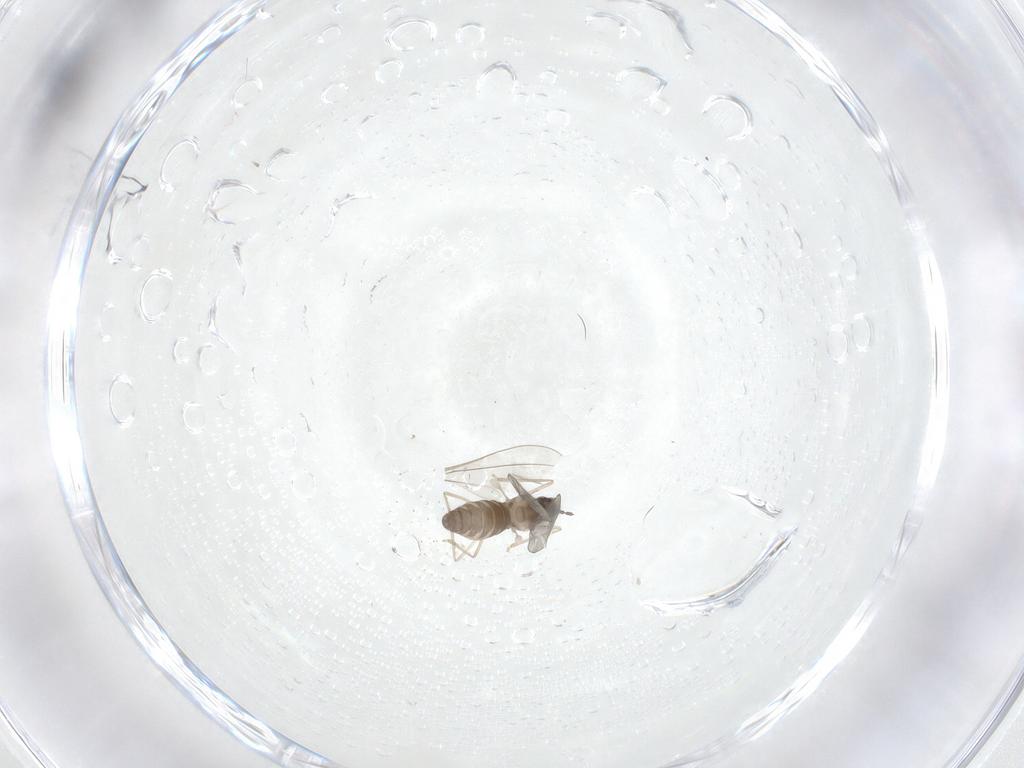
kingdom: Animalia
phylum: Arthropoda
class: Insecta
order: Diptera
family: Cecidomyiidae
